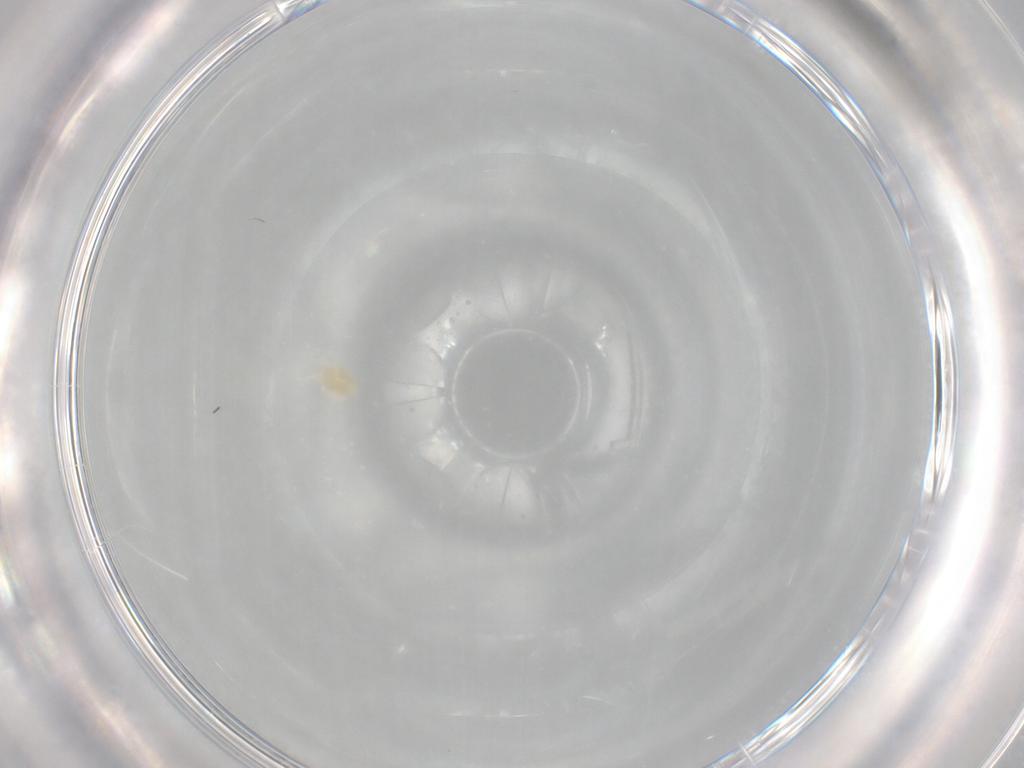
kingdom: Animalia
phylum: Arthropoda
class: Arachnida
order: Trombidiformes
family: Eupodidae
